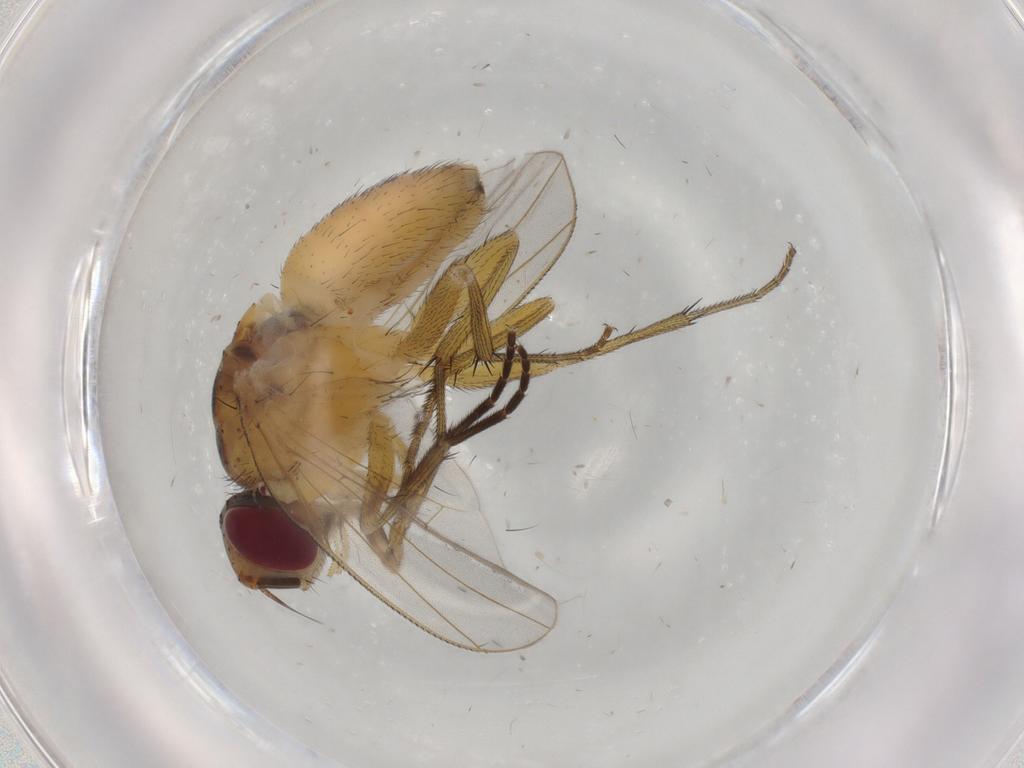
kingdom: Animalia
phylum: Arthropoda
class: Insecta
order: Diptera
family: Muscidae
